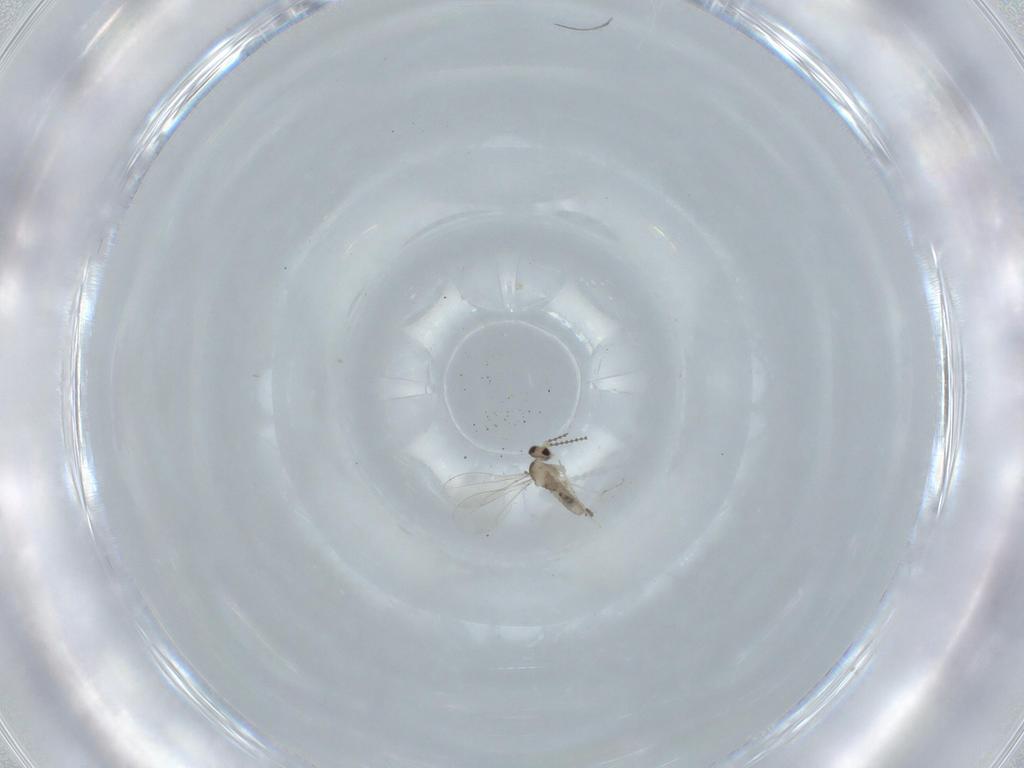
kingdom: Animalia
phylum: Arthropoda
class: Insecta
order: Diptera
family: Cecidomyiidae
